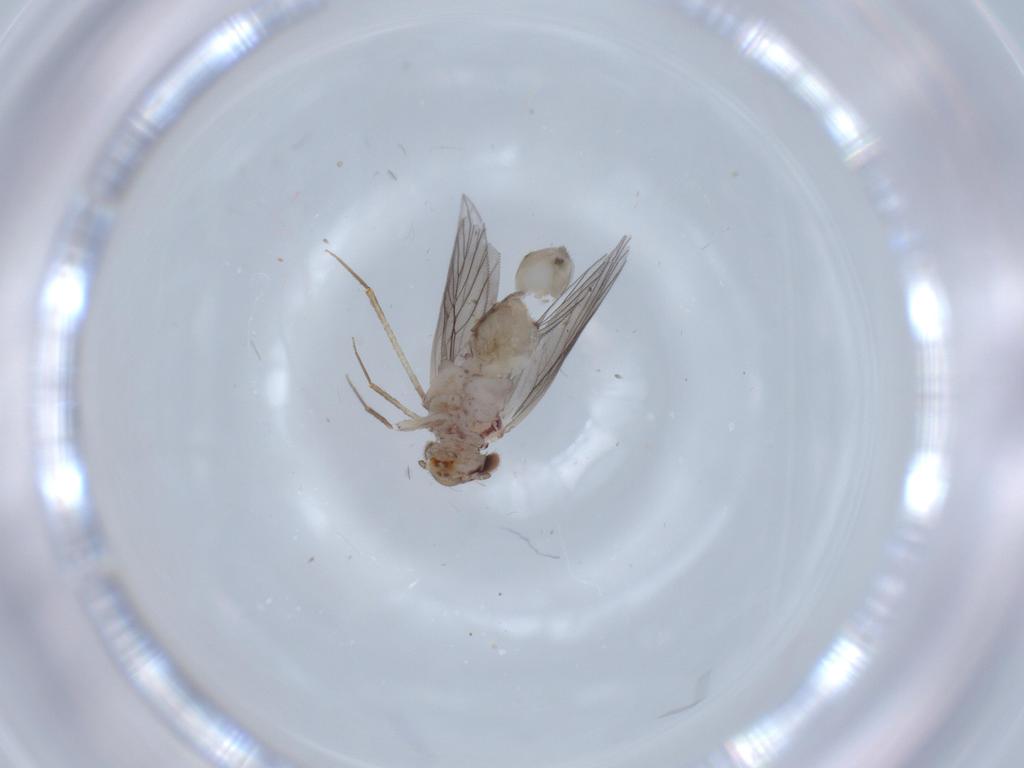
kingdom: Animalia
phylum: Arthropoda
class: Insecta
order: Psocodea
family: Lepidopsocidae
